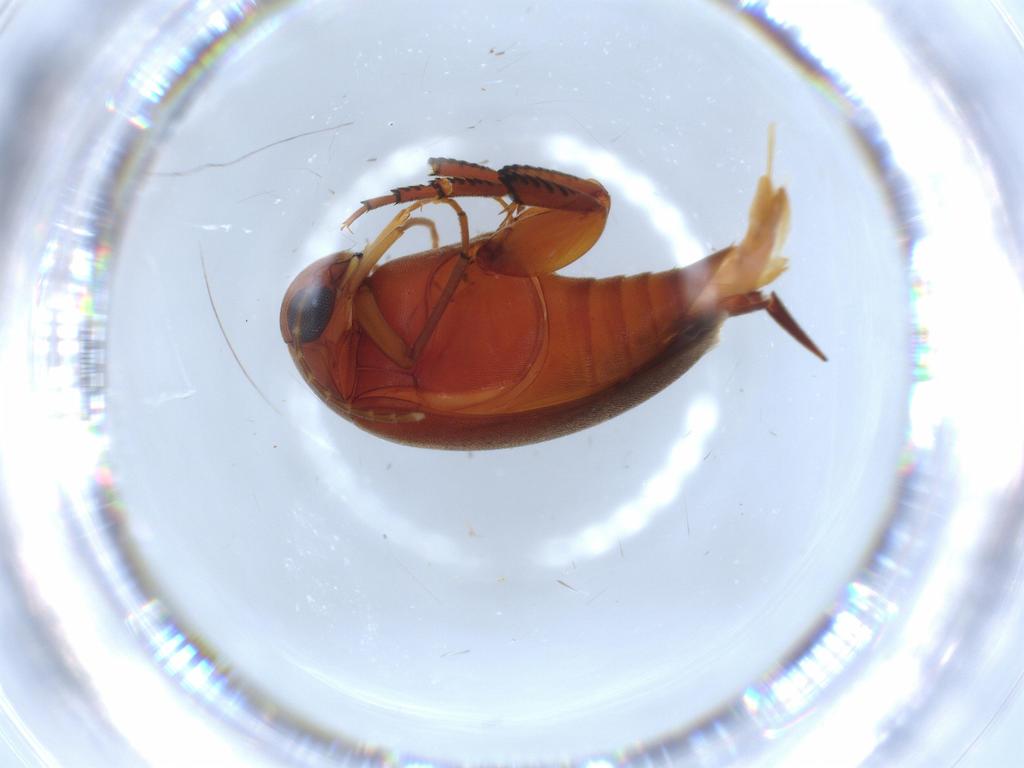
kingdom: Animalia
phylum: Arthropoda
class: Insecta
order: Coleoptera
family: Mordellidae
